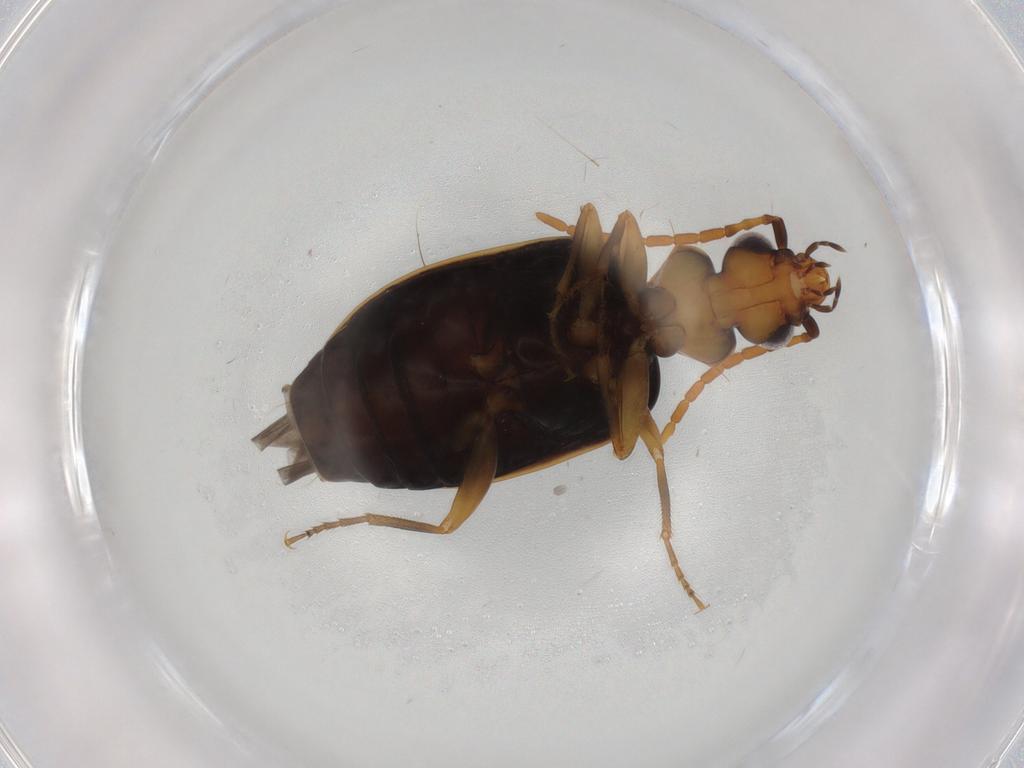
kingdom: Animalia
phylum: Arthropoda
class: Insecta
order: Coleoptera
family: Carabidae
